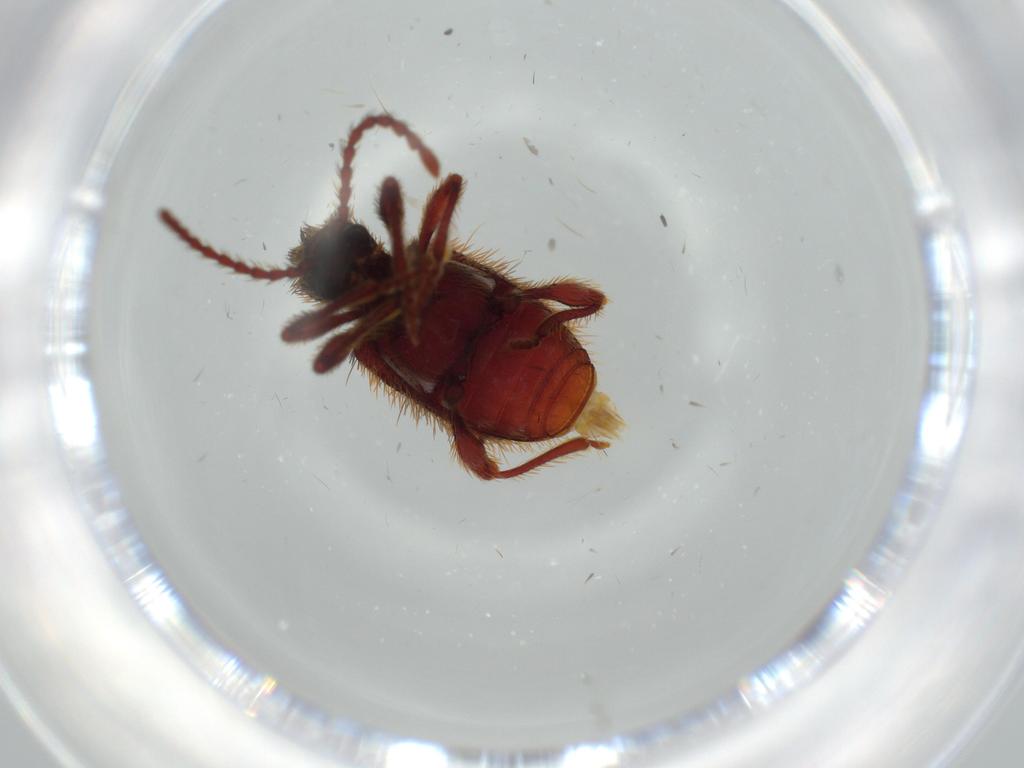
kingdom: Animalia
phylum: Arthropoda
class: Insecta
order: Coleoptera
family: Ptinidae
